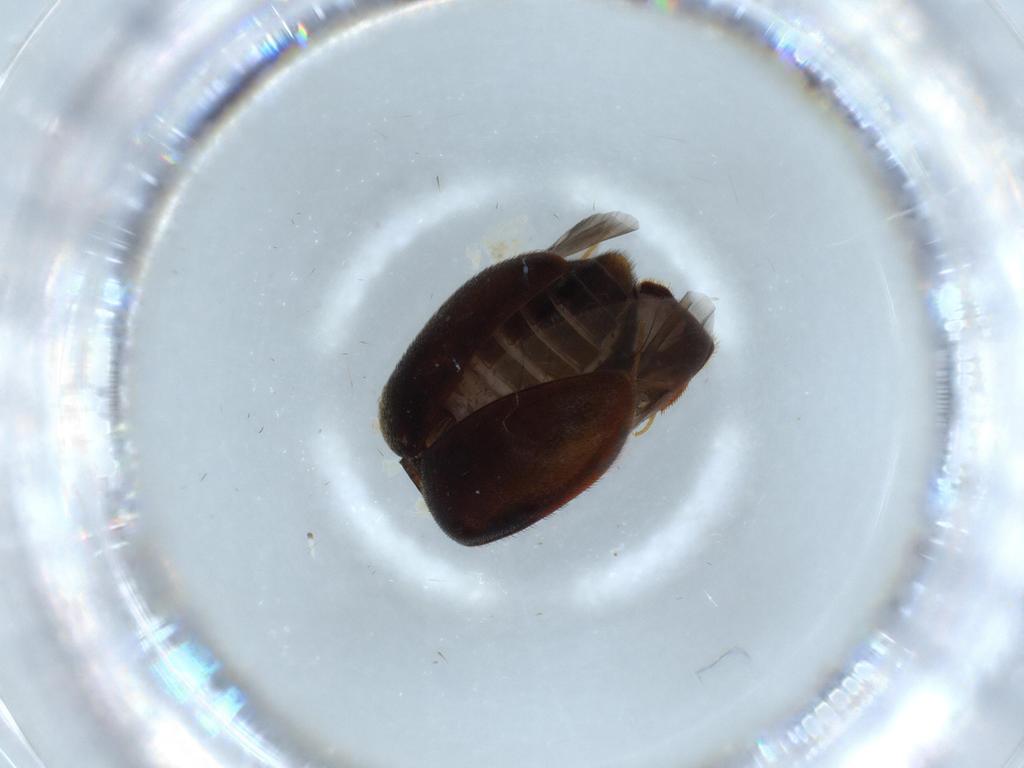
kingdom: Animalia
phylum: Arthropoda
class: Insecta
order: Coleoptera
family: Dermestidae
